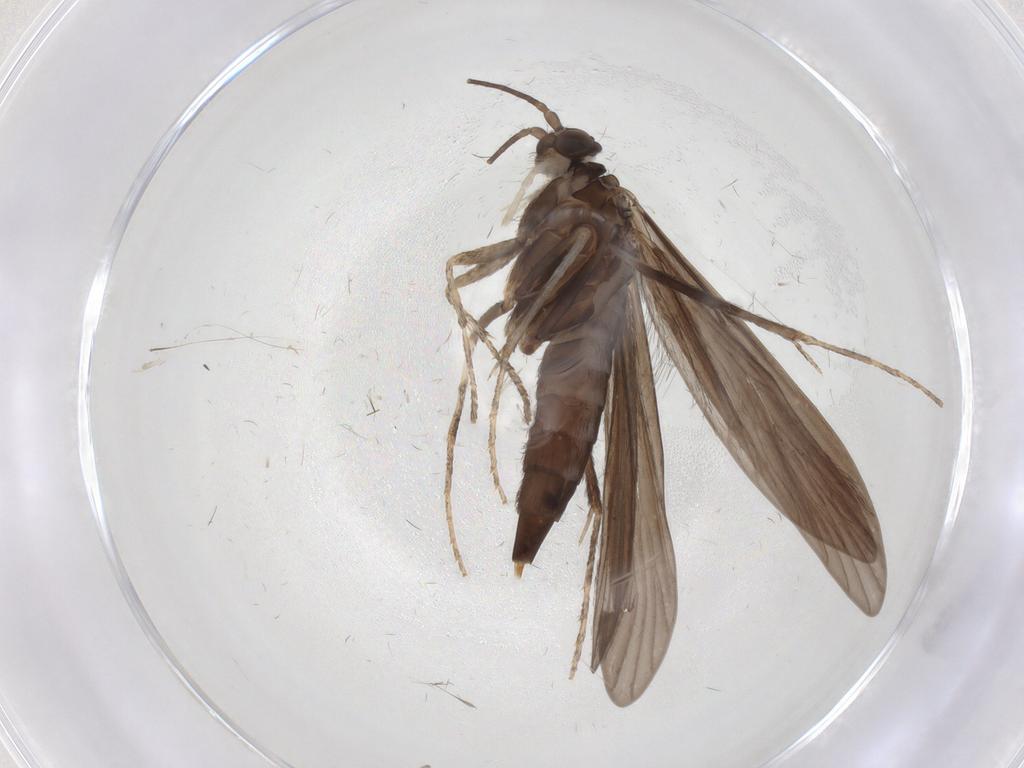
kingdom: Animalia
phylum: Arthropoda
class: Insecta
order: Trichoptera
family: Xiphocentronidae
